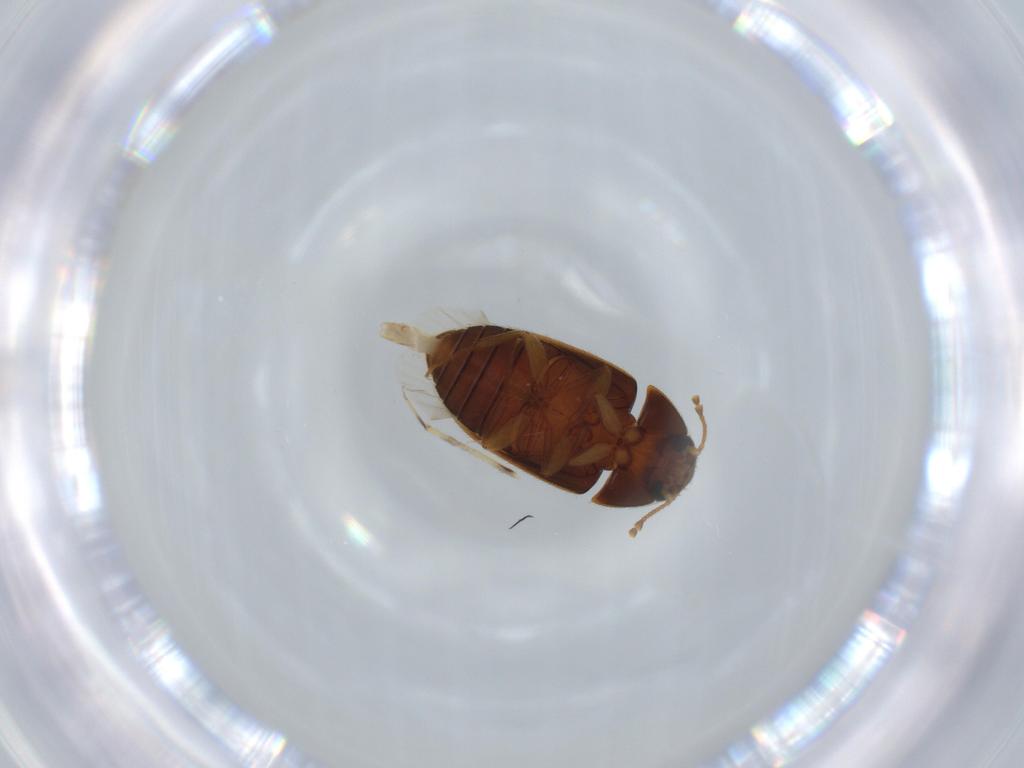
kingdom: Animalia
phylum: Arthropoda
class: Insecta
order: Coleoptera
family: Mycetophagidae
